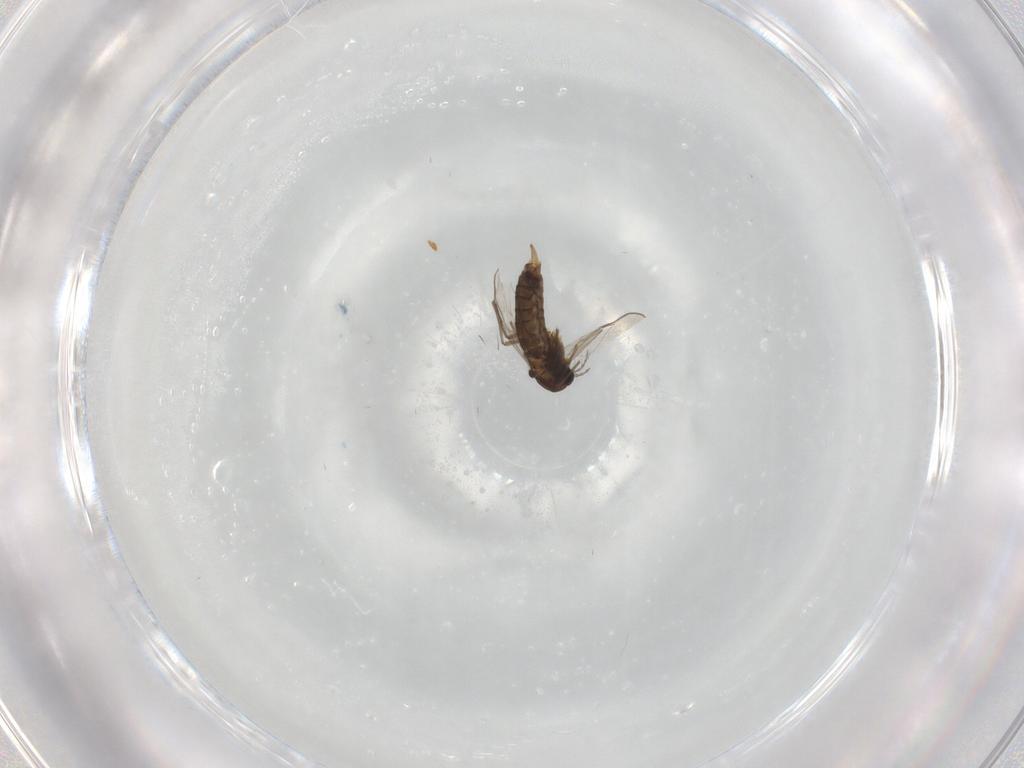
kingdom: Animalia
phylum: Arthropoda
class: Insecta
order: Diptera
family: Chironomidae
